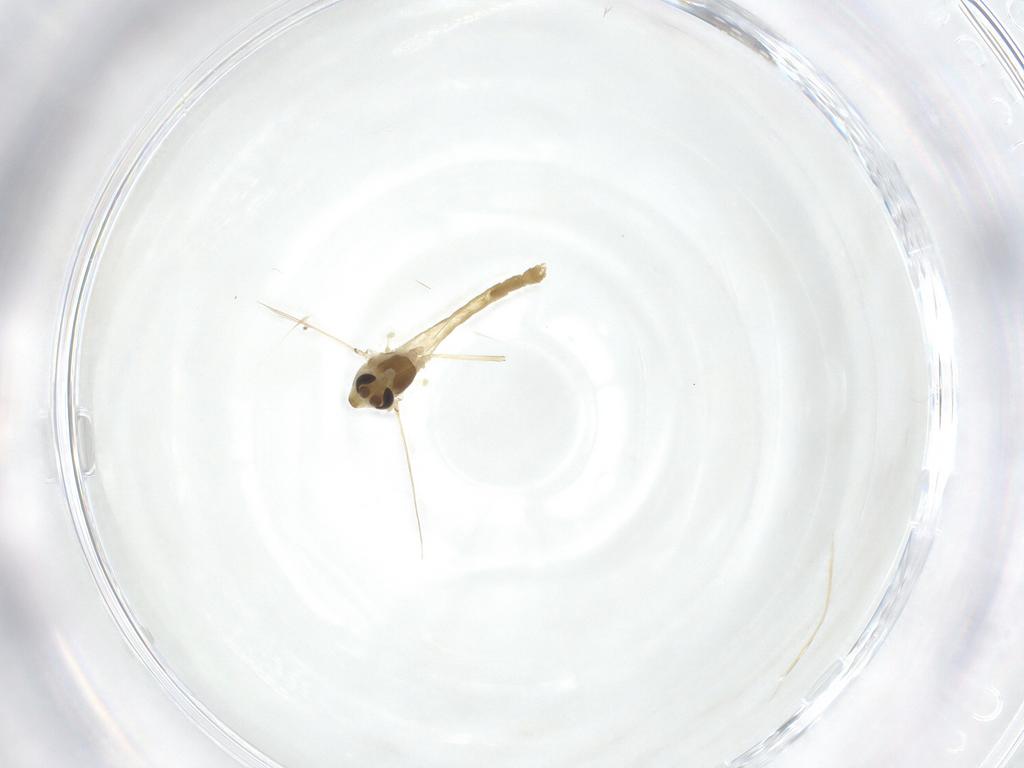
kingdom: Animalia
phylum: Arthropoda
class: Insecta
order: Diptera
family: Chironomidae
